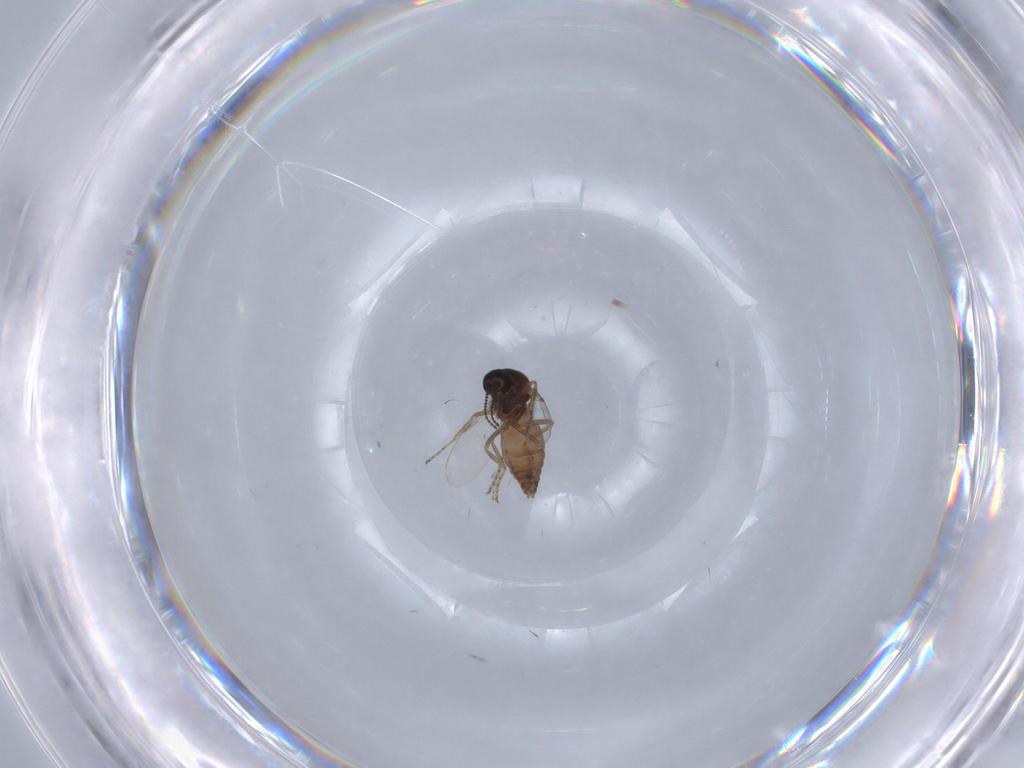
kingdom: Animalia
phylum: Arthropoda
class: Insecta
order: Diptera
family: Ceratopogonidae
